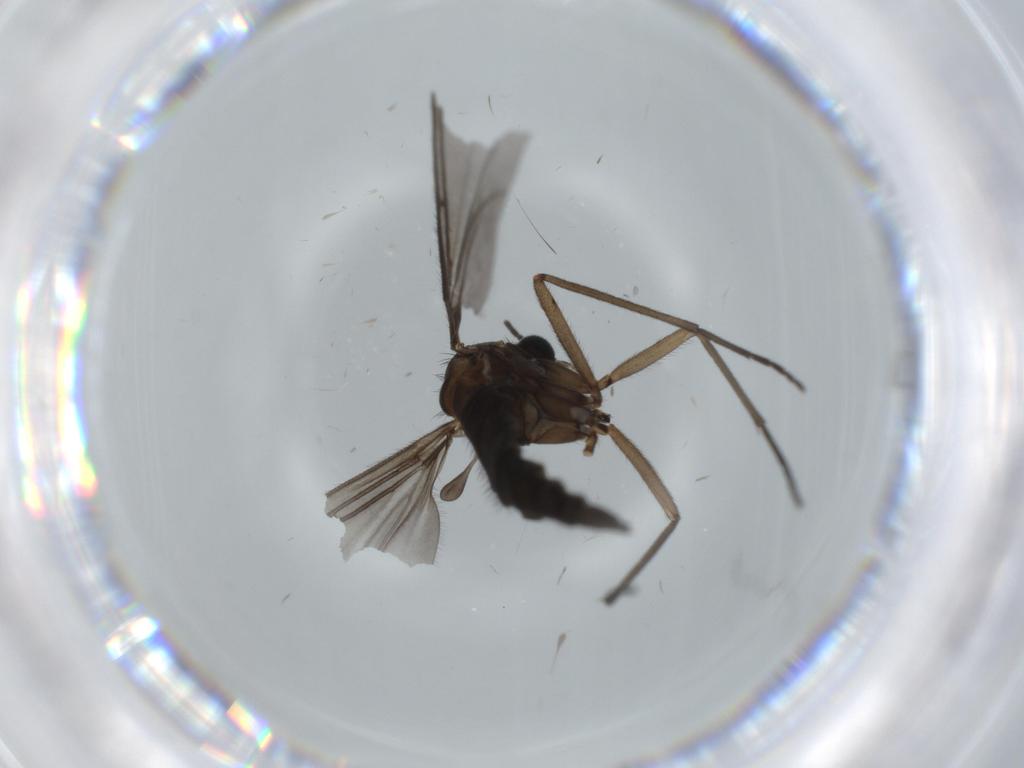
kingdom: Animalia
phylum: Arthropoda
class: Insecta
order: Diptera
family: Sciaridae
